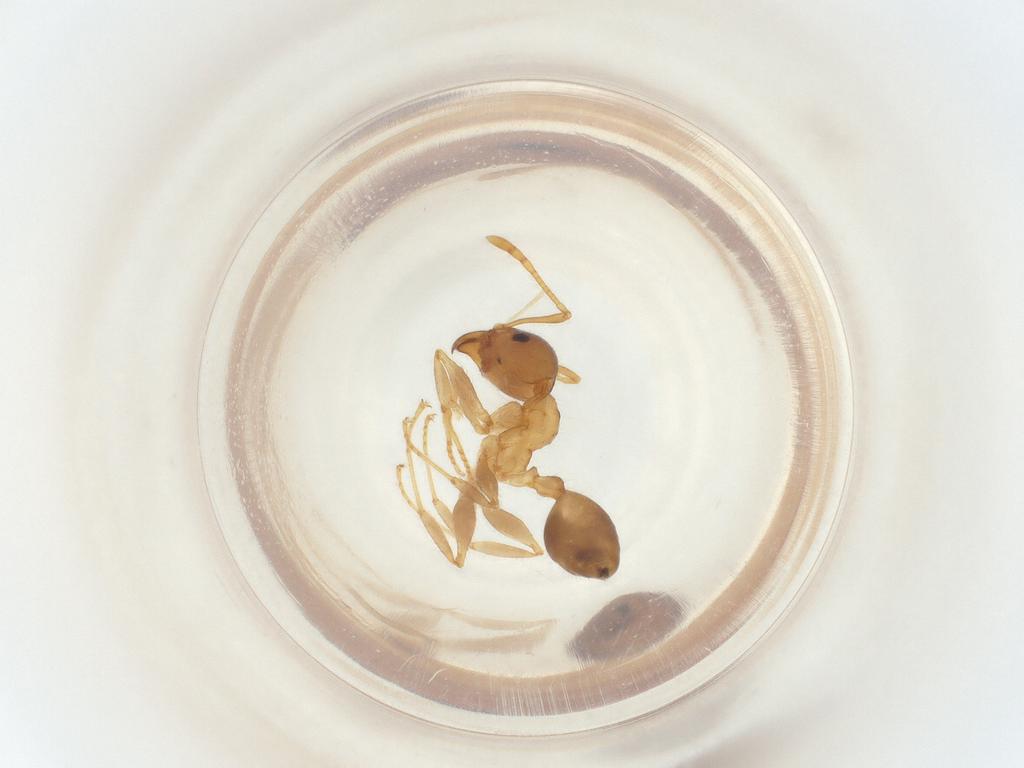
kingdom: Animalia
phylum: Arthropoda
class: Insecta
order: Hymenoptera
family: Formicidae
